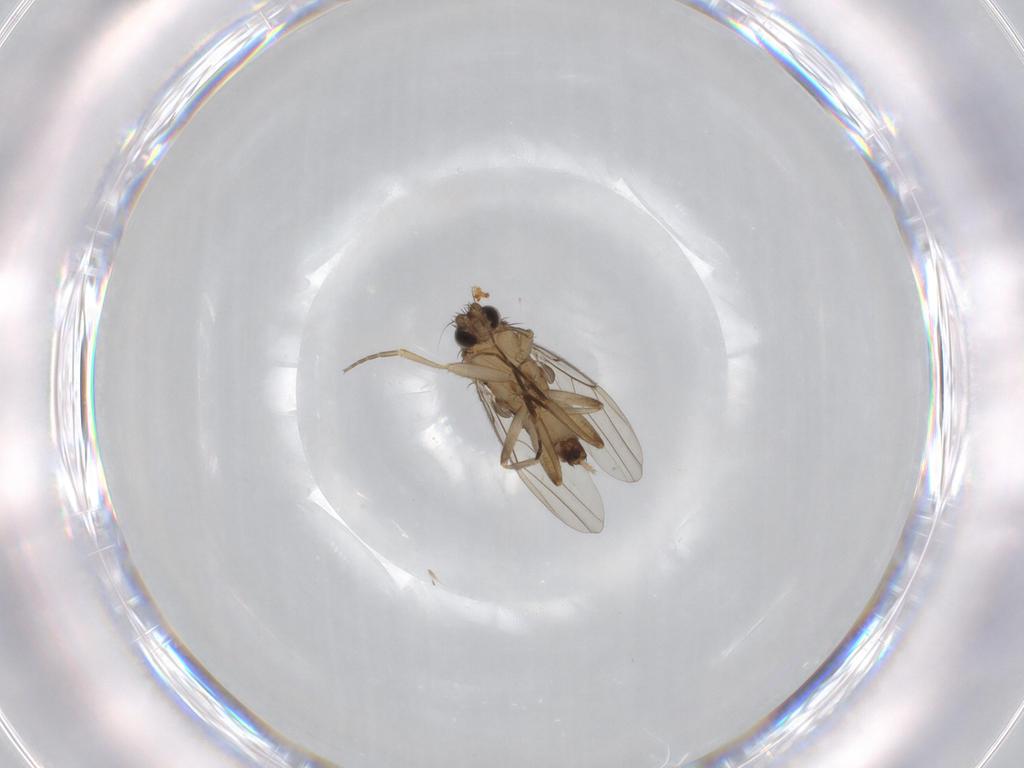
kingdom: Animalia
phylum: Arthropoda
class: Insecta
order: Diptera
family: Phoridae
